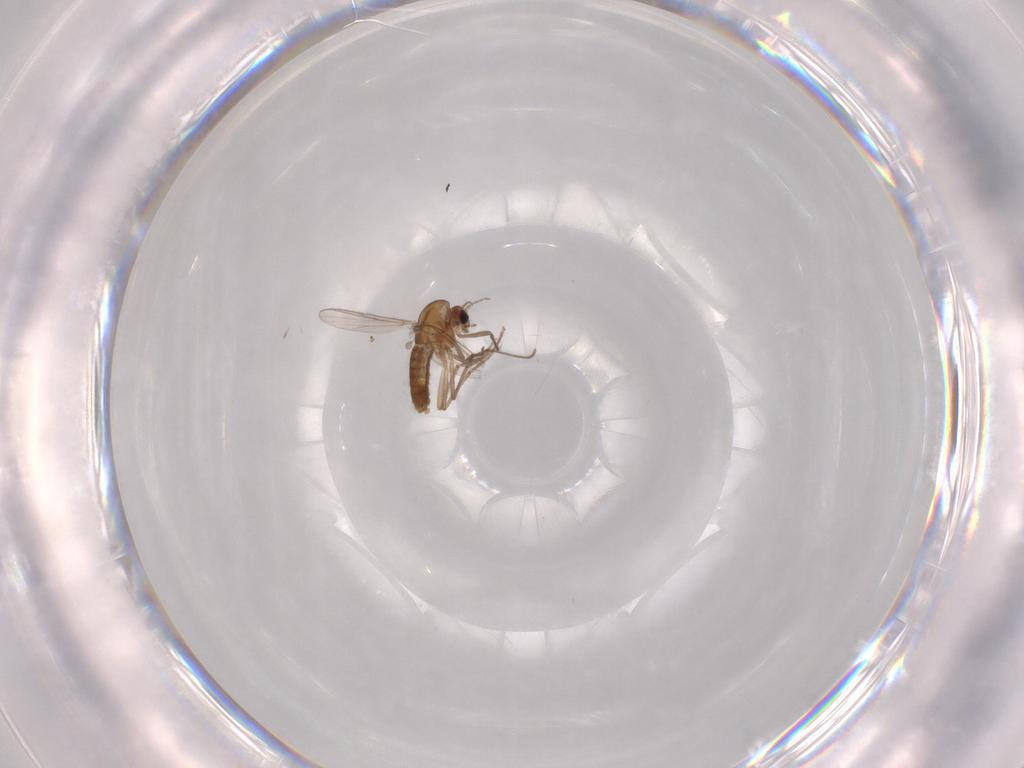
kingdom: Animalia
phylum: Arthropoda
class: Insecta
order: Diptera
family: Chironomidae
